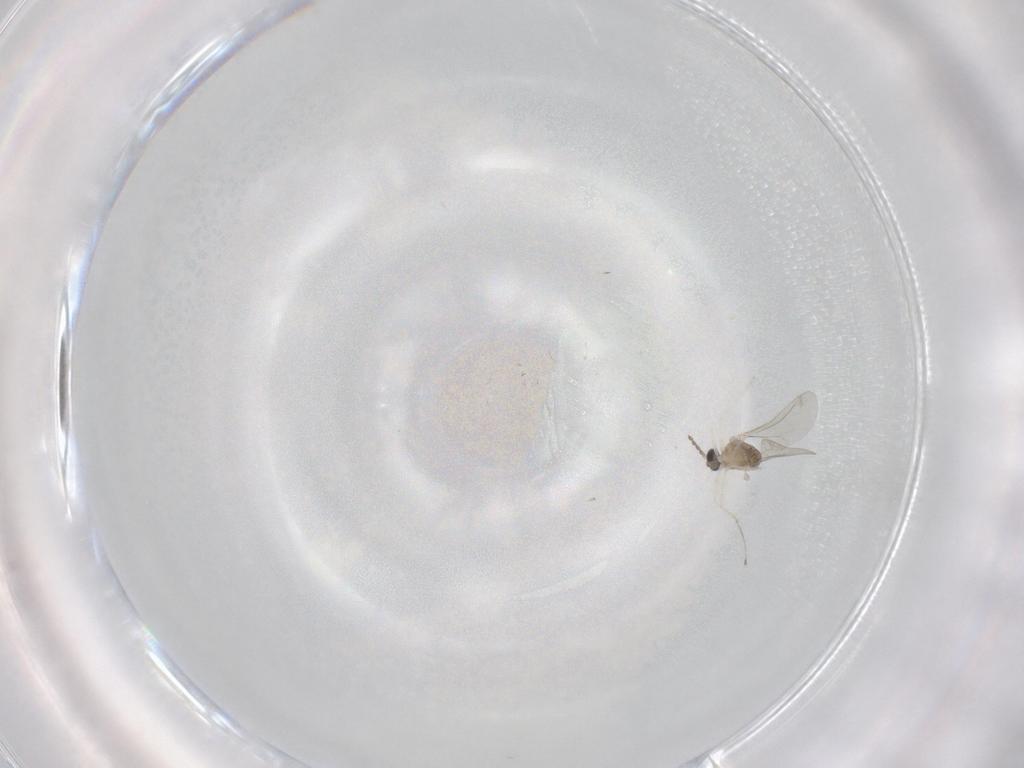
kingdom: Animalia
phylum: Arthropoda
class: Insecta
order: Diptera
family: Cecidomyiidae
